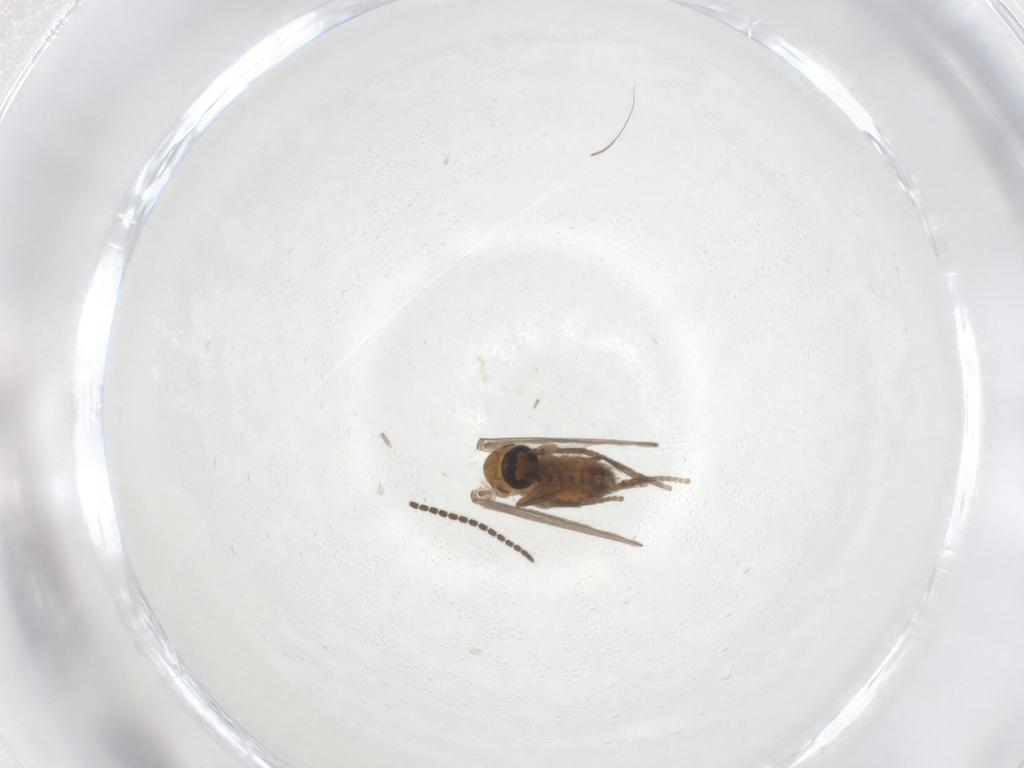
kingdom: Animalia
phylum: Arthropoda
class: Insecta
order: Diptera
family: Sciaridae
